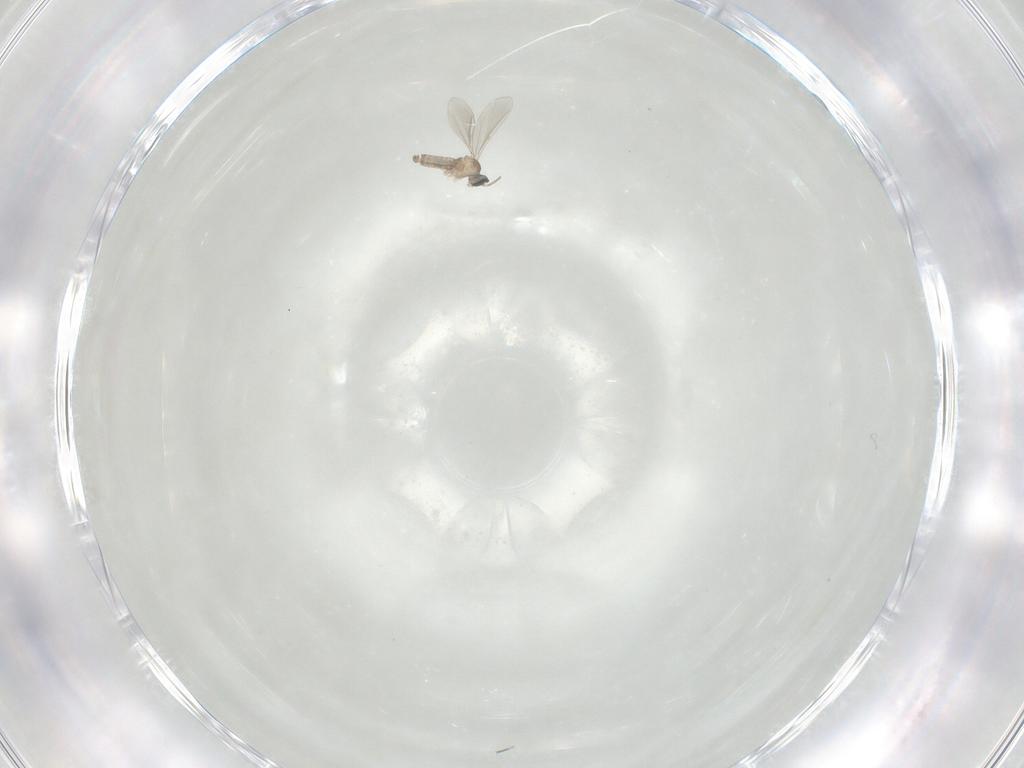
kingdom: Animalia
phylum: Arthropoda
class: Insecta
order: Diptera
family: Cecidomyiidae
